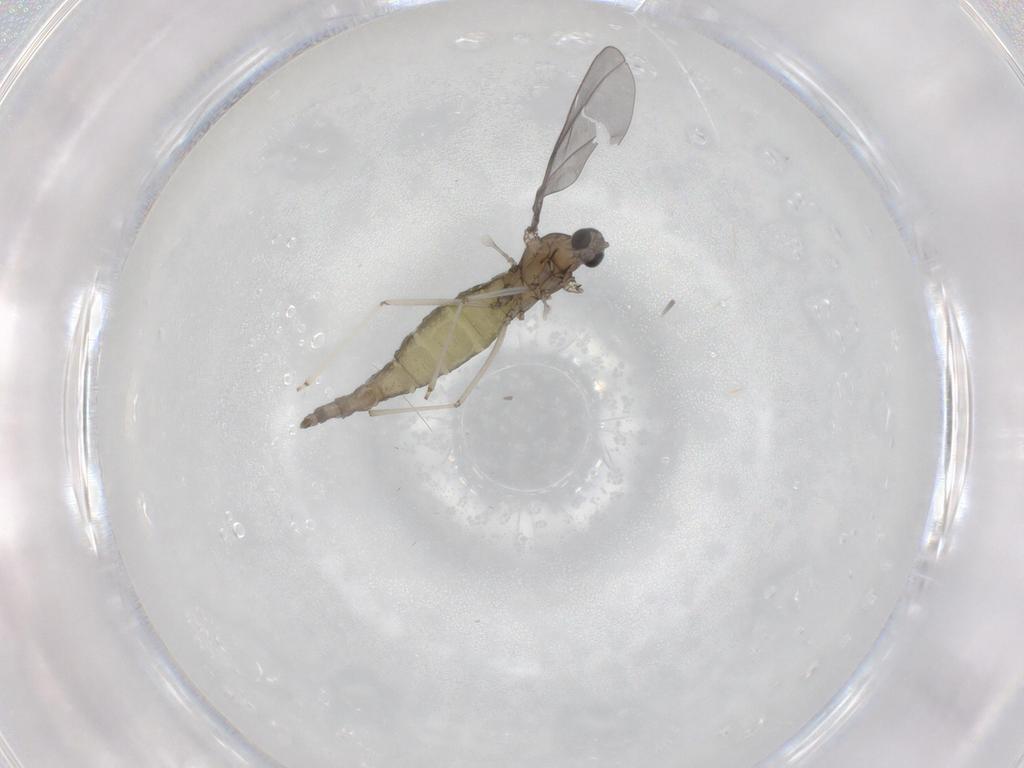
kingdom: Animalia
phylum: Arthropoda
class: Insecta
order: Diptera
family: Cecidomyiidae
